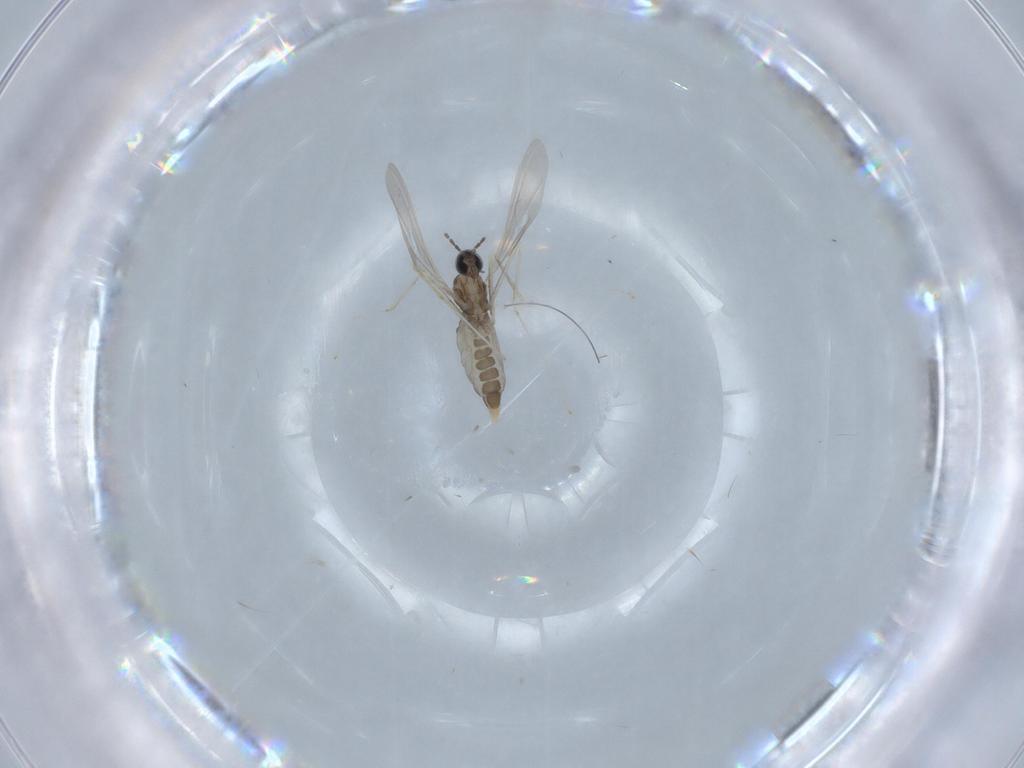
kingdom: Animalia
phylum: Arthropoda
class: Insecta
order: Diptera
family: Cecidomyiidae
